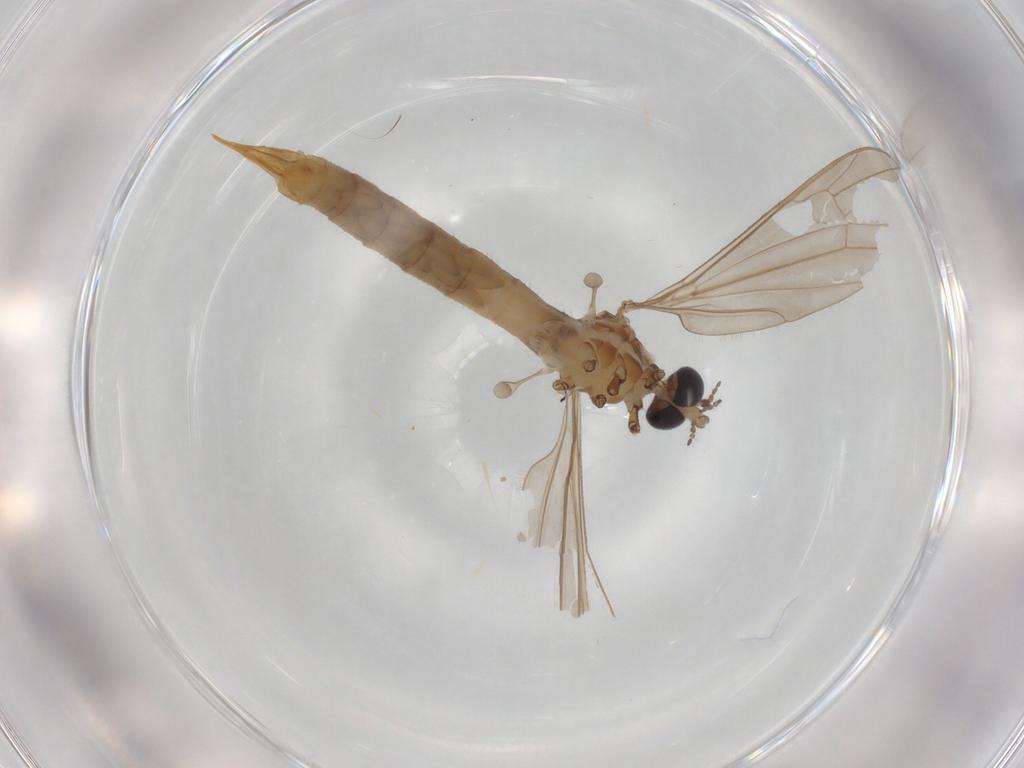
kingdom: Animalia
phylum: Arthropoda
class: Insecta
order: Diptera
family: Limoniidae
